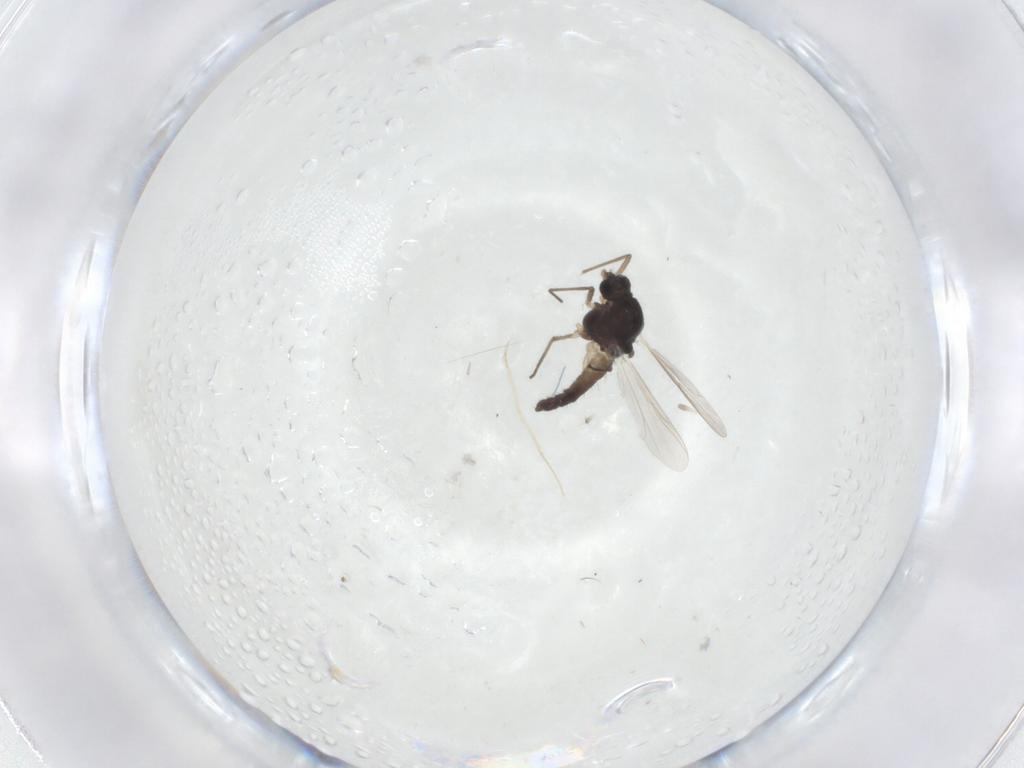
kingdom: Animalia
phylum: Arthropoda
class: Insecta
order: Diptera
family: Chironomidae
